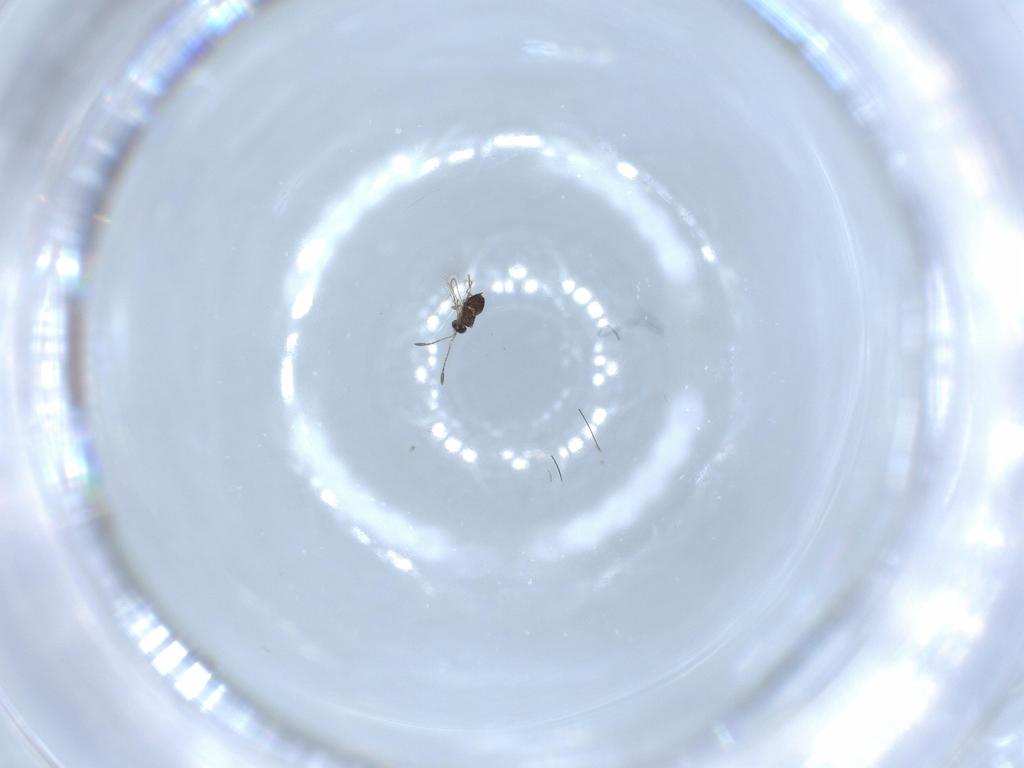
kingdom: Animalia
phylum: Arthropoda
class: Insecta
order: Hymenoptera
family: Mymaridae
